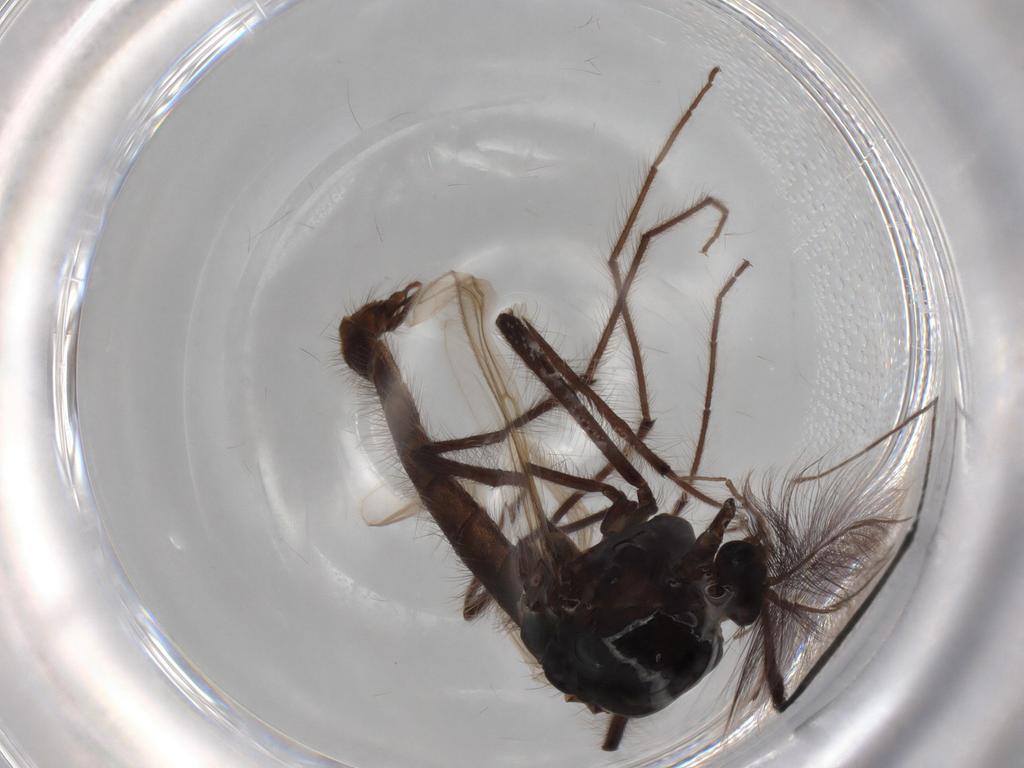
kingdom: Animalia
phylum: Arthropoda
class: Insecta
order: Diptera
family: Chironomidae
